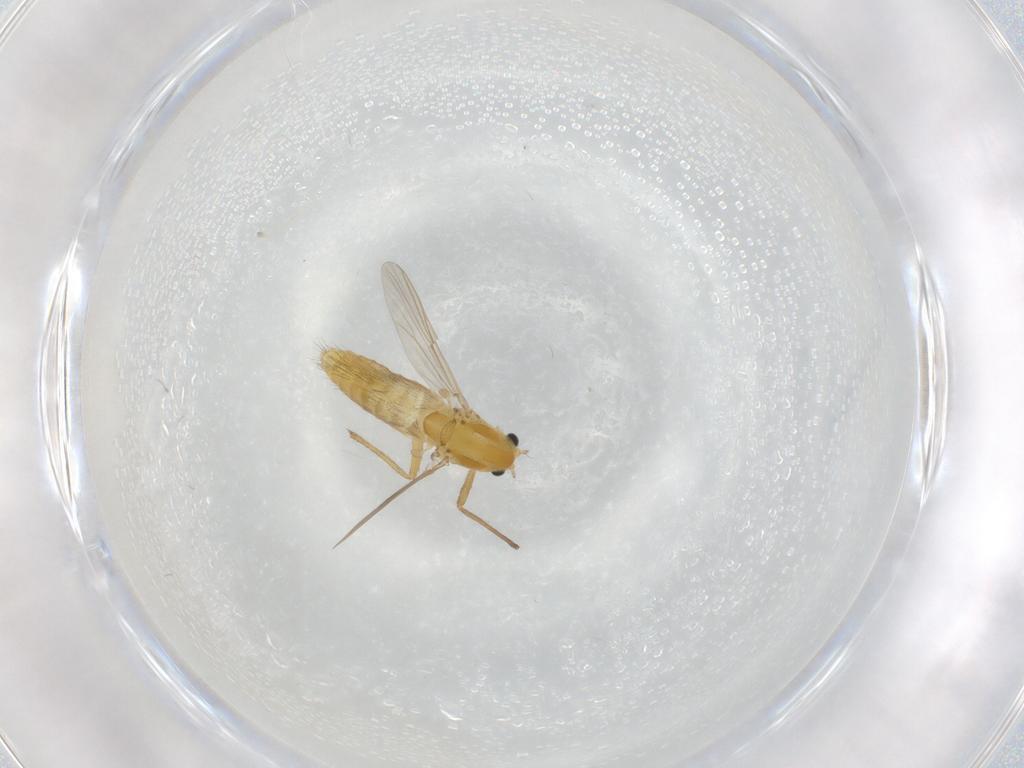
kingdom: Animalia
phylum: Arthropoda
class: Insecta
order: Diptera
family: Chironomidae
